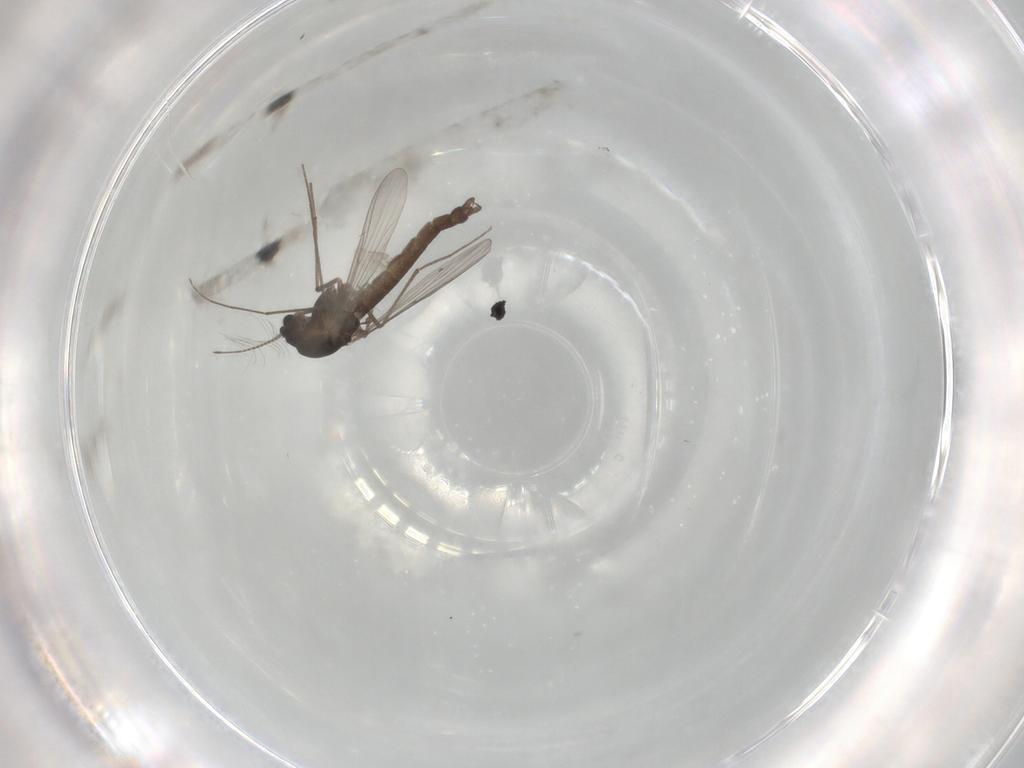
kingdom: Animalia
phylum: Arthropoda
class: Insecta
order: Diptera
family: Chironomidae
